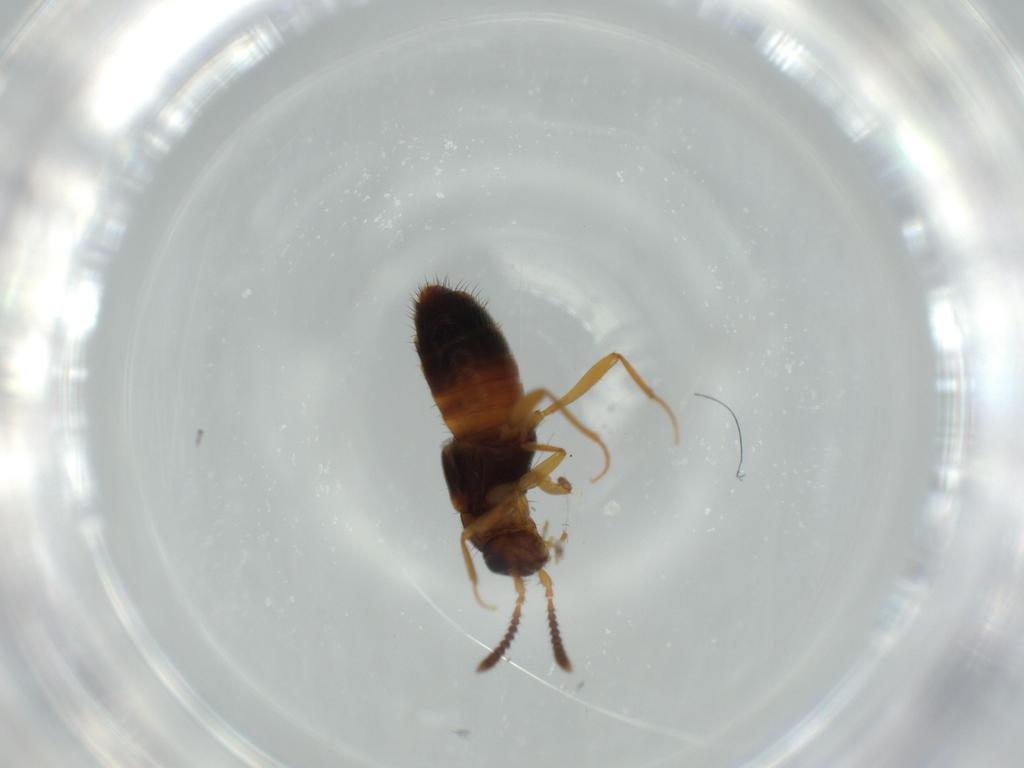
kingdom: Animalia
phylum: Arthropoda
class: Insecta
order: Coleoptera
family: Staphylinidae
